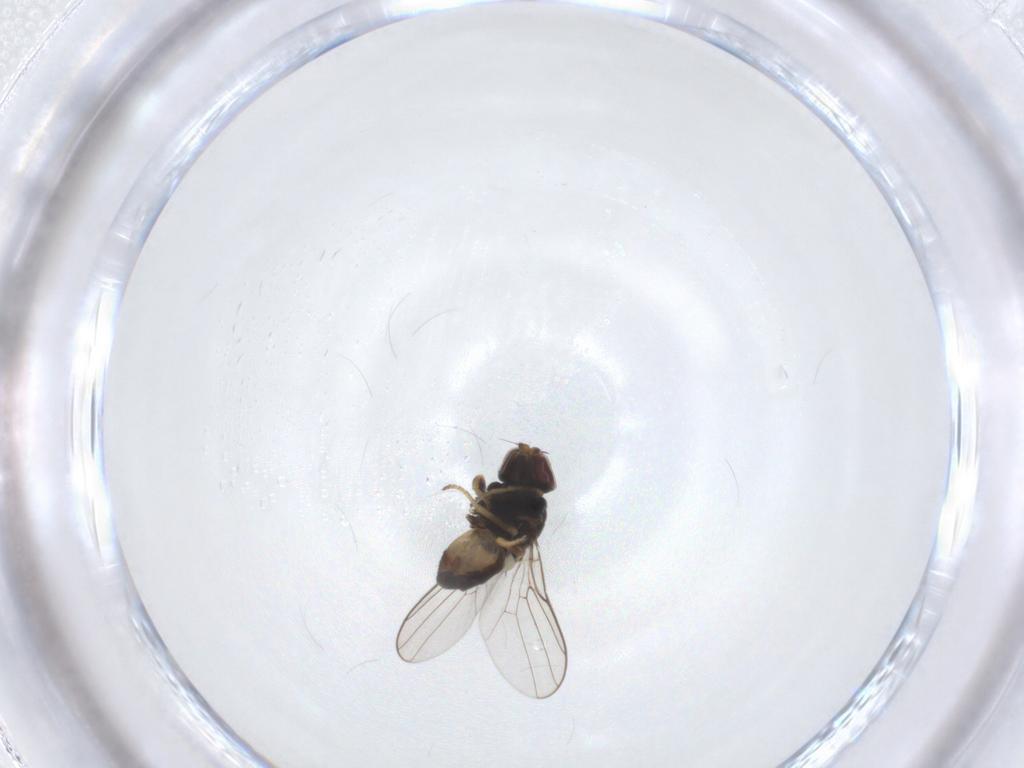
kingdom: Animalia
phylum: Arthropoda
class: Insecta
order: Diptera
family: Chloropidae
